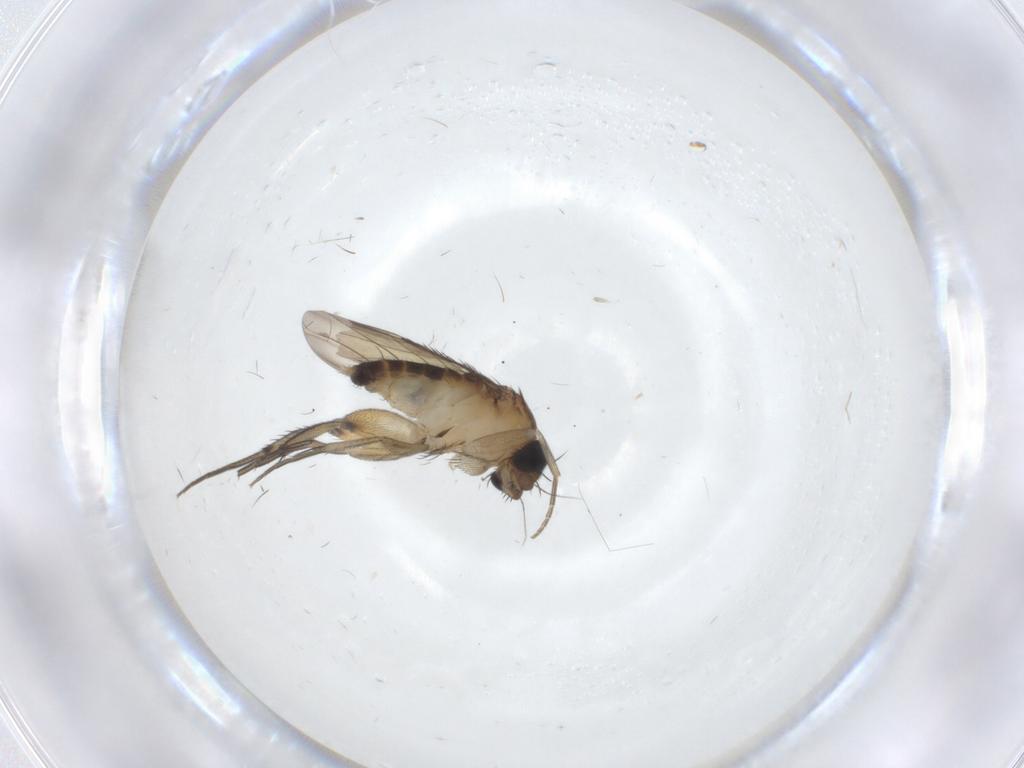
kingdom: Animalia
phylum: Arthropoda
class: Insecta
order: Diptera
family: Phoridae
